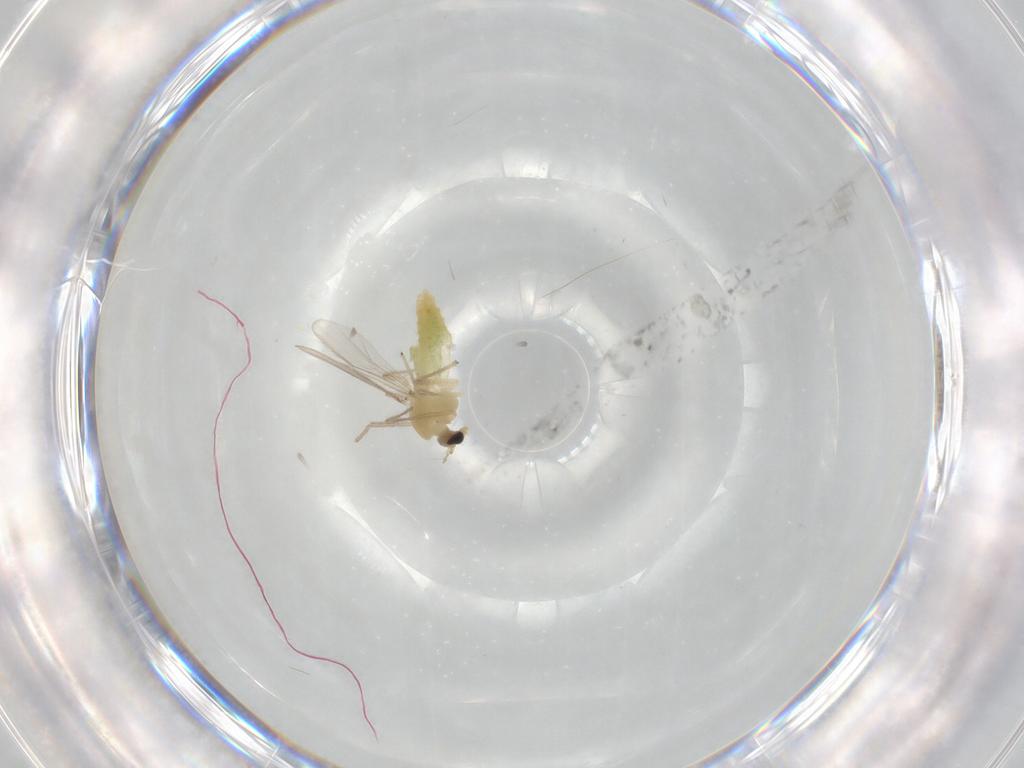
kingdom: Animalia
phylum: Arthropoda
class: Insecta
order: Diptera
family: Chironomidae
